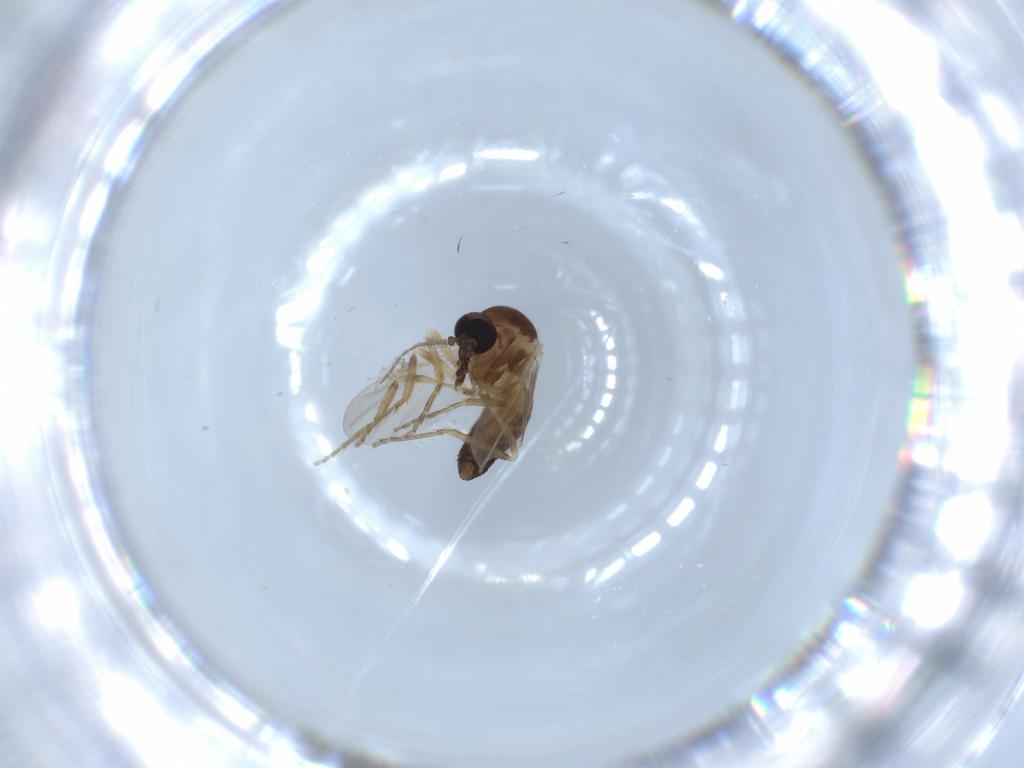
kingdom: Animalia
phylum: Arthropoda
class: Insecta
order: Diptera
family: Ceratopogonidae
